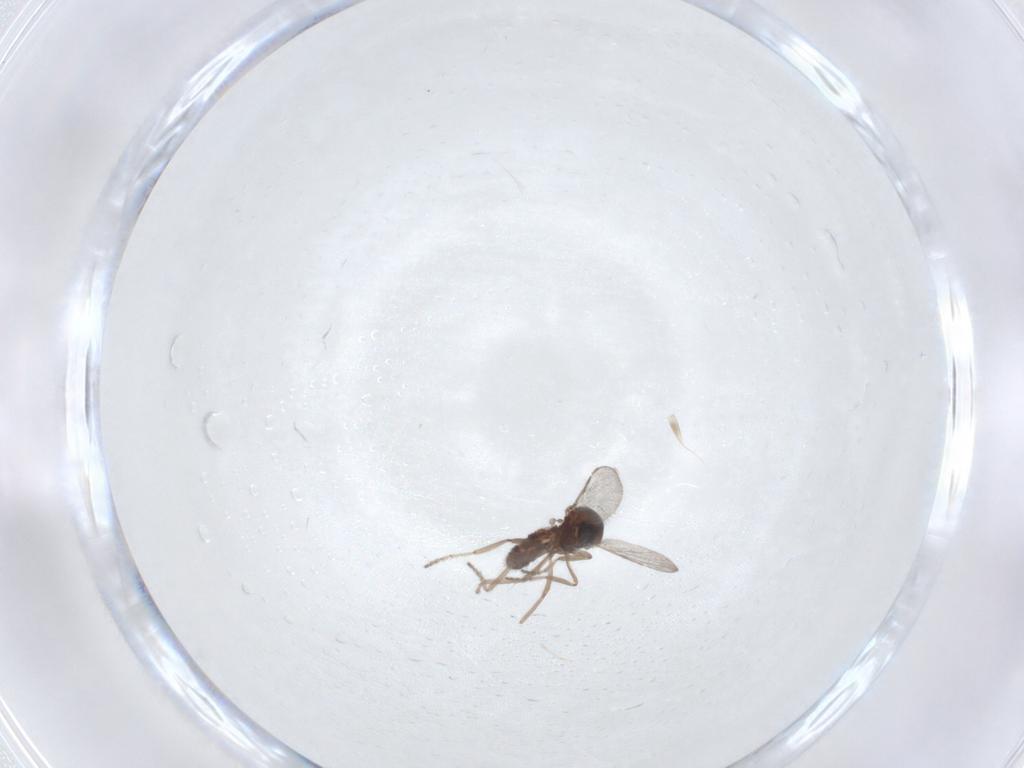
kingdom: Animalia
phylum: Arthropoda
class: Insecta
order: Diptera
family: Ceratopogonidae
